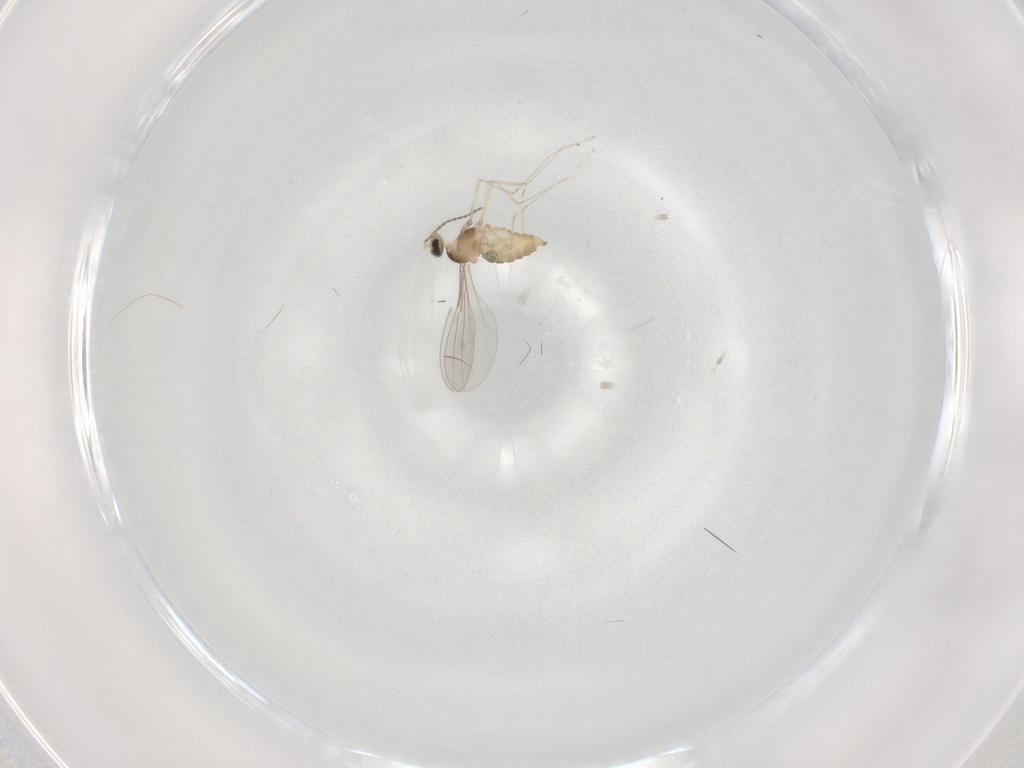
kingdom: Animalia
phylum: Arthropoda
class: Insecta
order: Diptera
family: Cecidomyiidae
